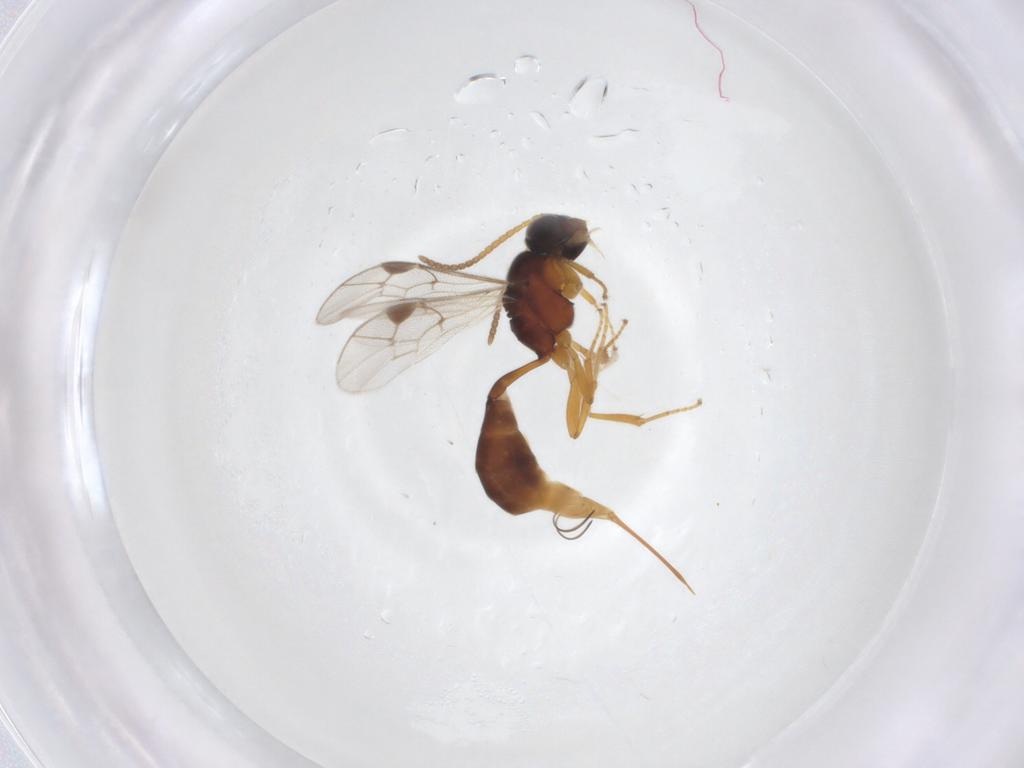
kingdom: Animalia
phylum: Arthropoda
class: Insecta
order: Hymenoptera
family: Ichneumonidae
